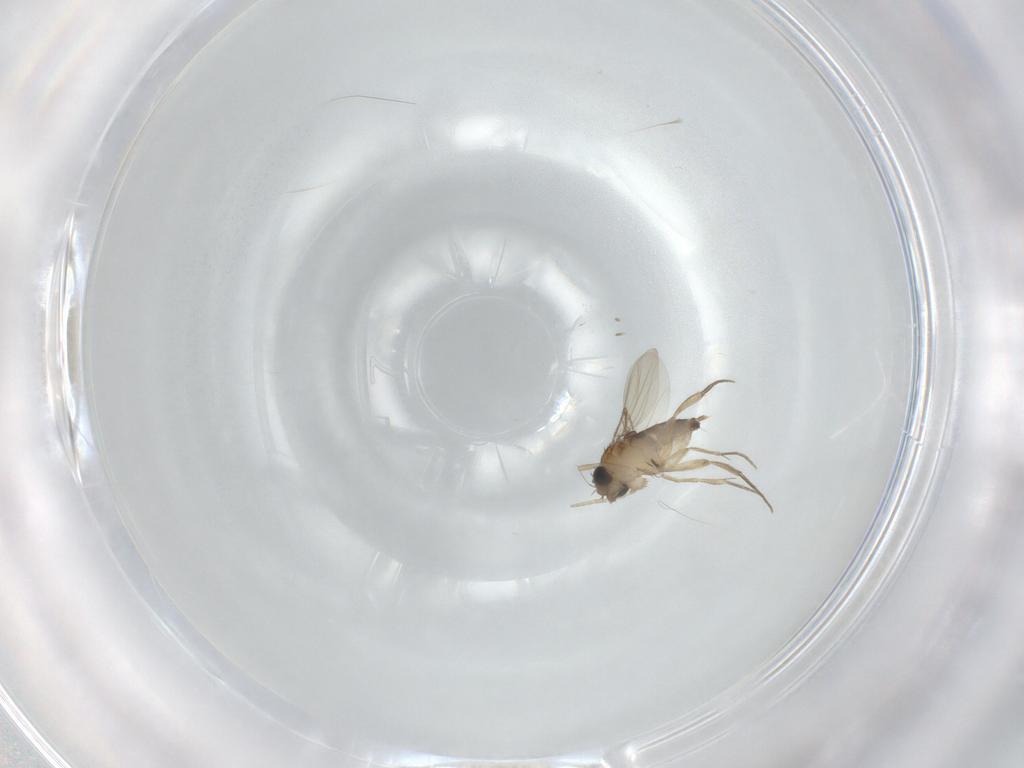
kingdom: Animalia
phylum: Arthropoda
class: Insecta
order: Diptera
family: Phoridae
